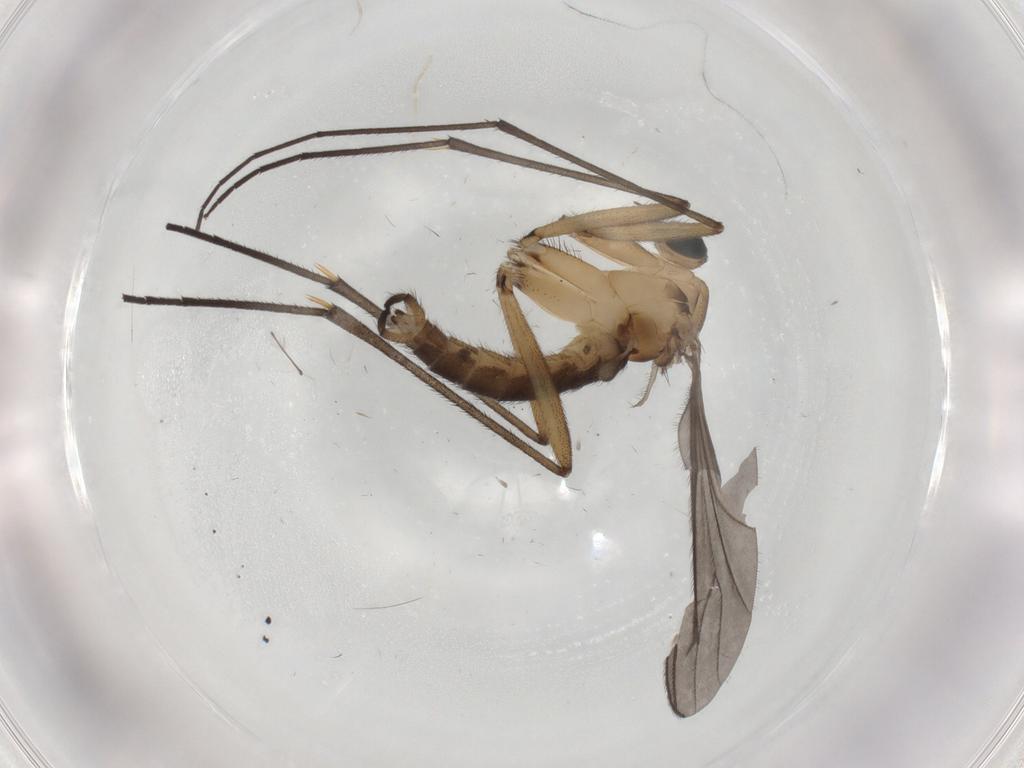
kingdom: Animalia
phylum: Arthropoda
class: Insecta
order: Diptera
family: Chironomidae
